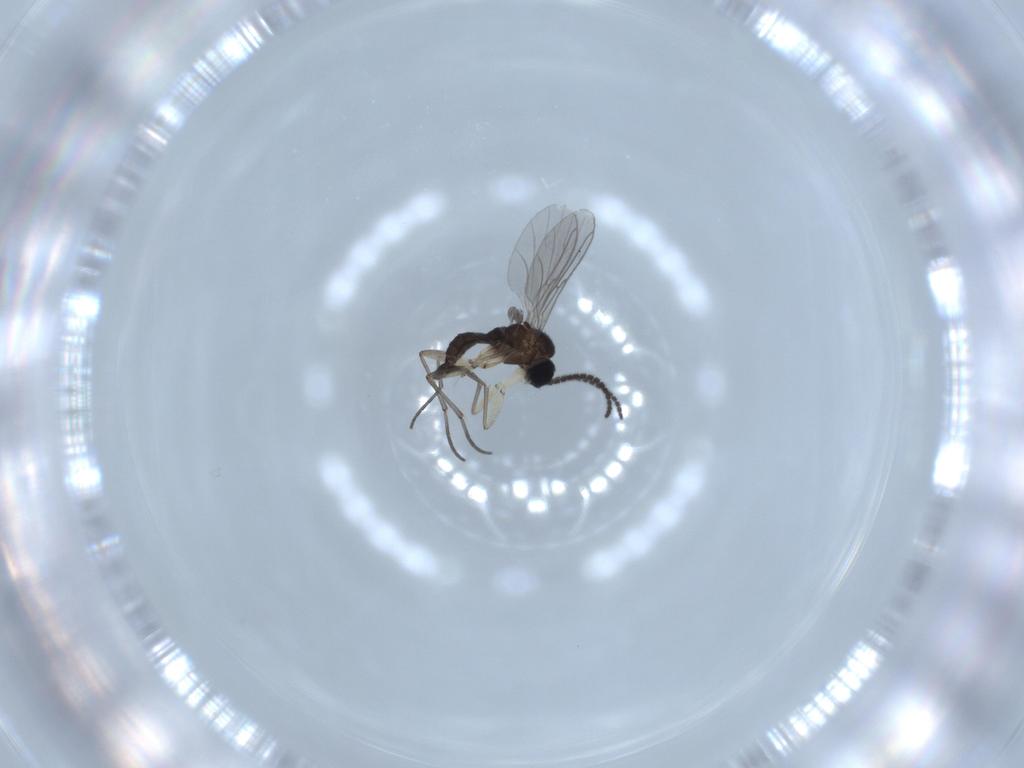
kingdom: Animalia
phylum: Arthropoda
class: Insecta
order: Diptera
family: Sciaridae
